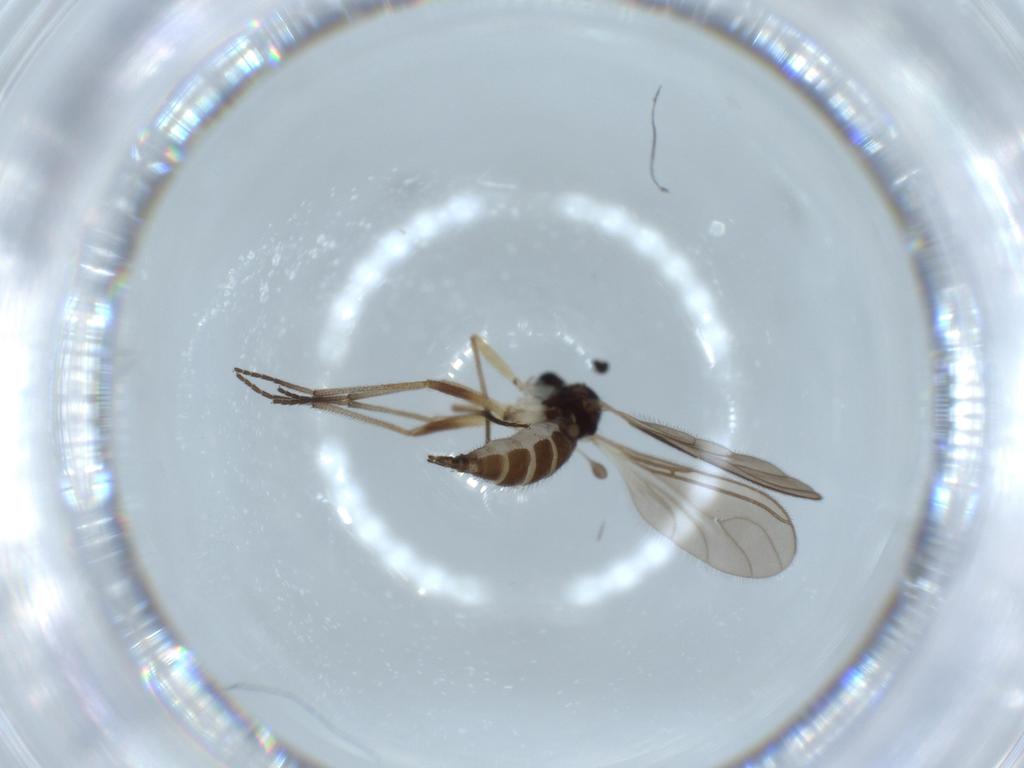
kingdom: Animalia
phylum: Arthropoda
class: Insecta
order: Diptera
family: Sciaridae
